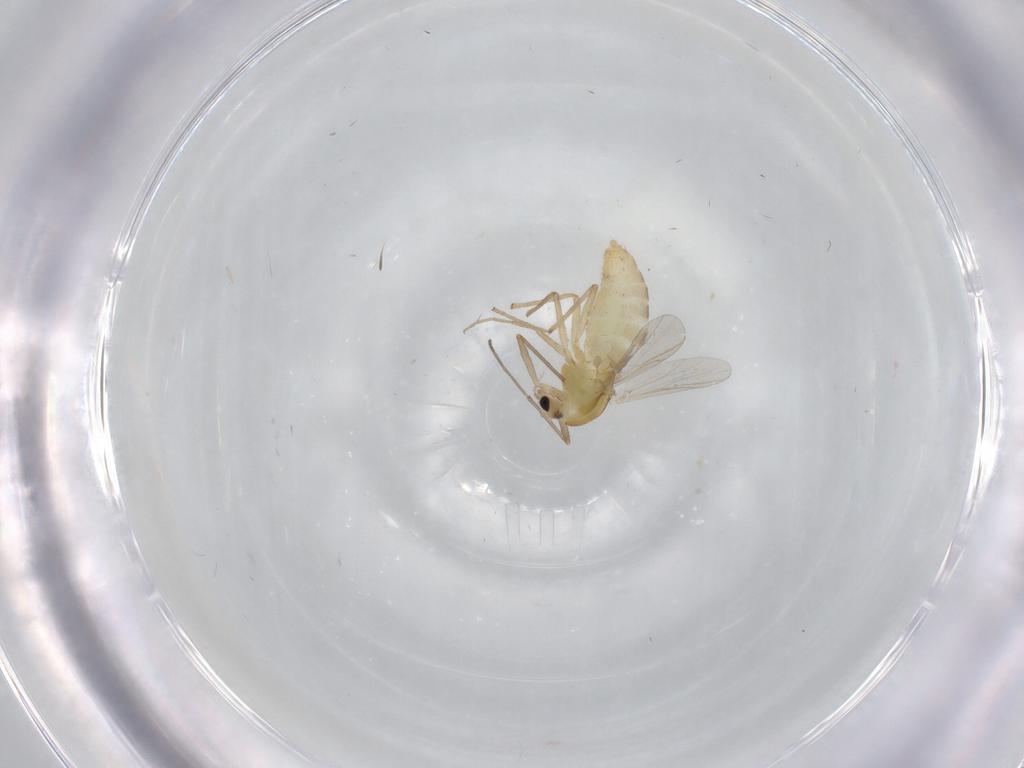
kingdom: Animalia
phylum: Arthropoda
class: Insecta
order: Diptera
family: Chironomidae
